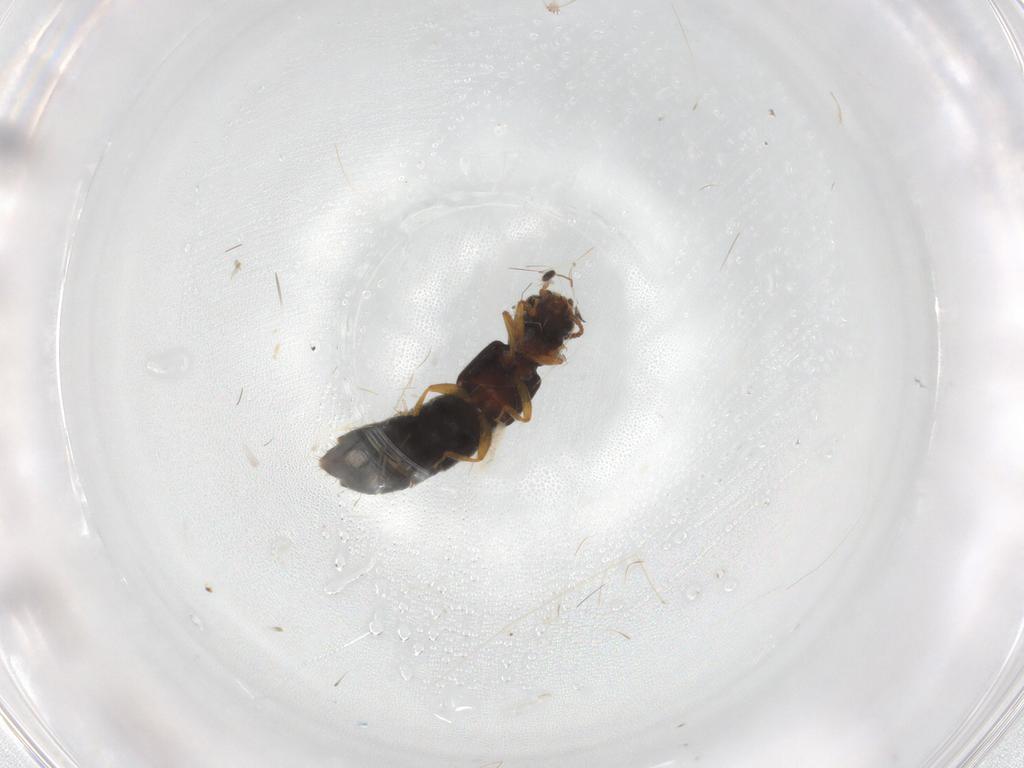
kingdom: Animalia
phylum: Arthropoda
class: Insecta
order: Coleoptera
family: Staphylinidae
